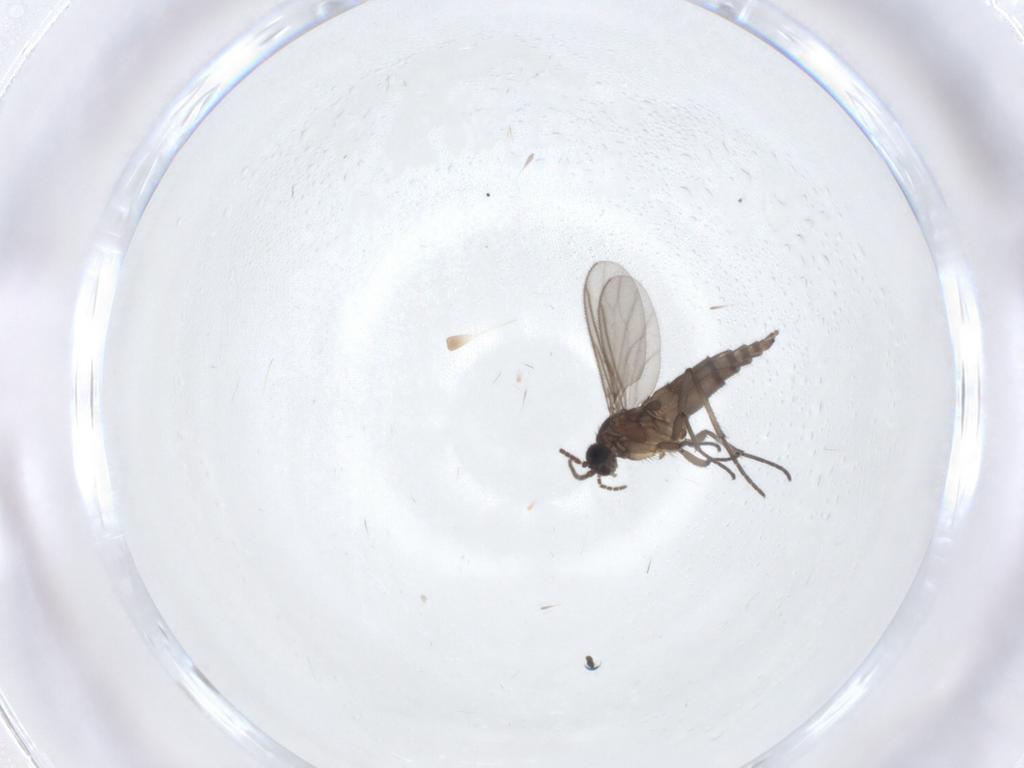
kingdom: Animalia
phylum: Arthropoda
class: Insecta
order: Diptera
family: Sciaridae
